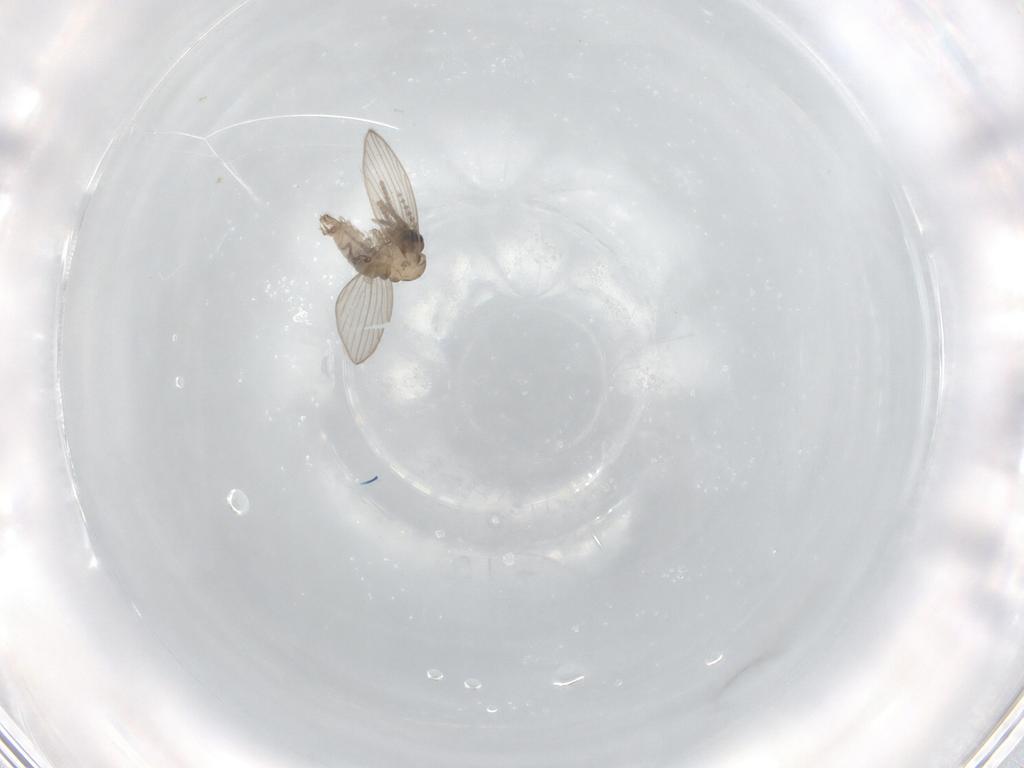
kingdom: Animalia
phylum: Arthropoda
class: Insecta
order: Diptera
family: Psychodidae
